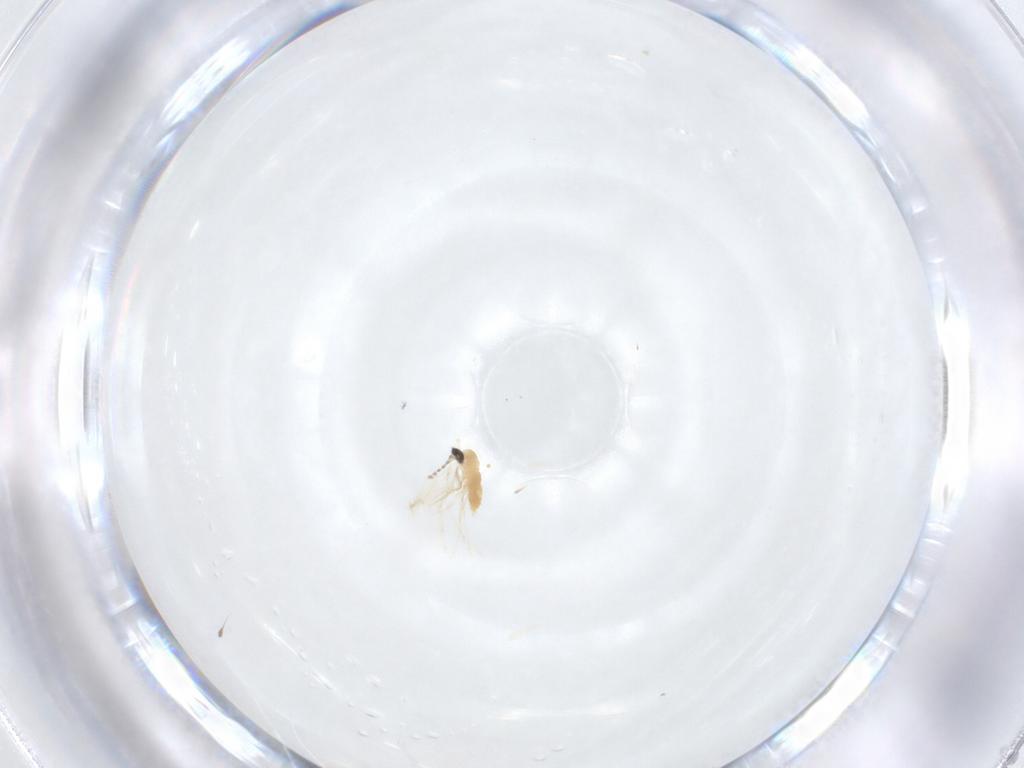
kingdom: Animalia
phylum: Arthropoda
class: Insecta
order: Diptera
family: Cecidomyiidae
